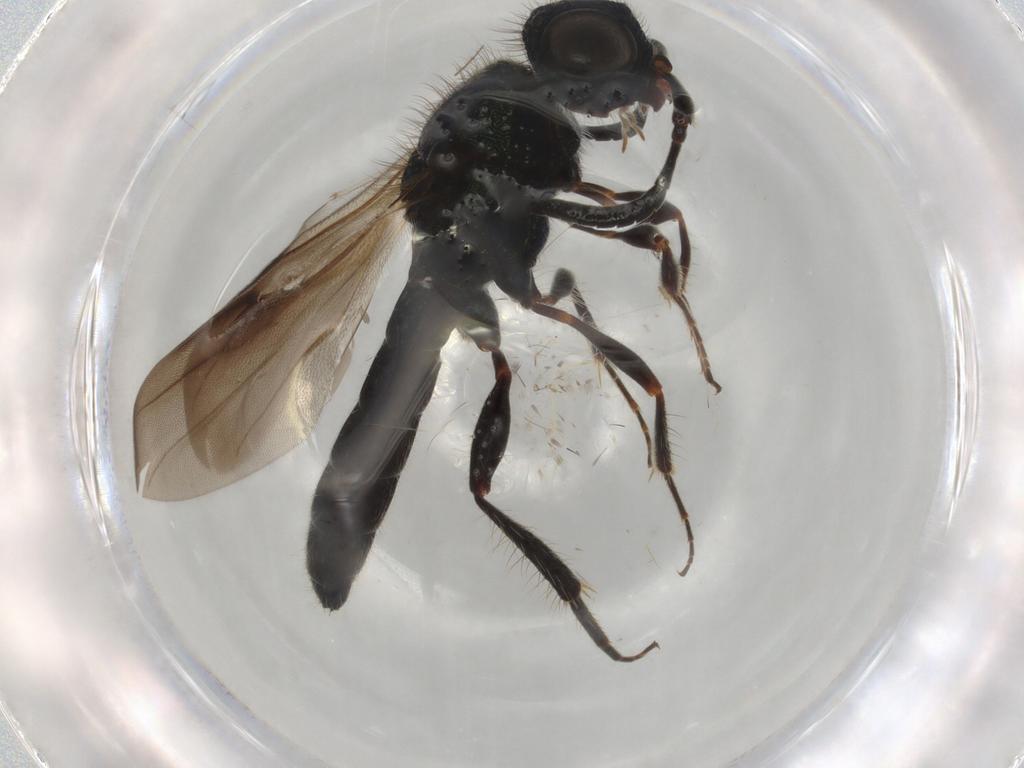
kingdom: Animalia
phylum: Arthropoda
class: Insecta
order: Hymenoptera
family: Scelionidae
